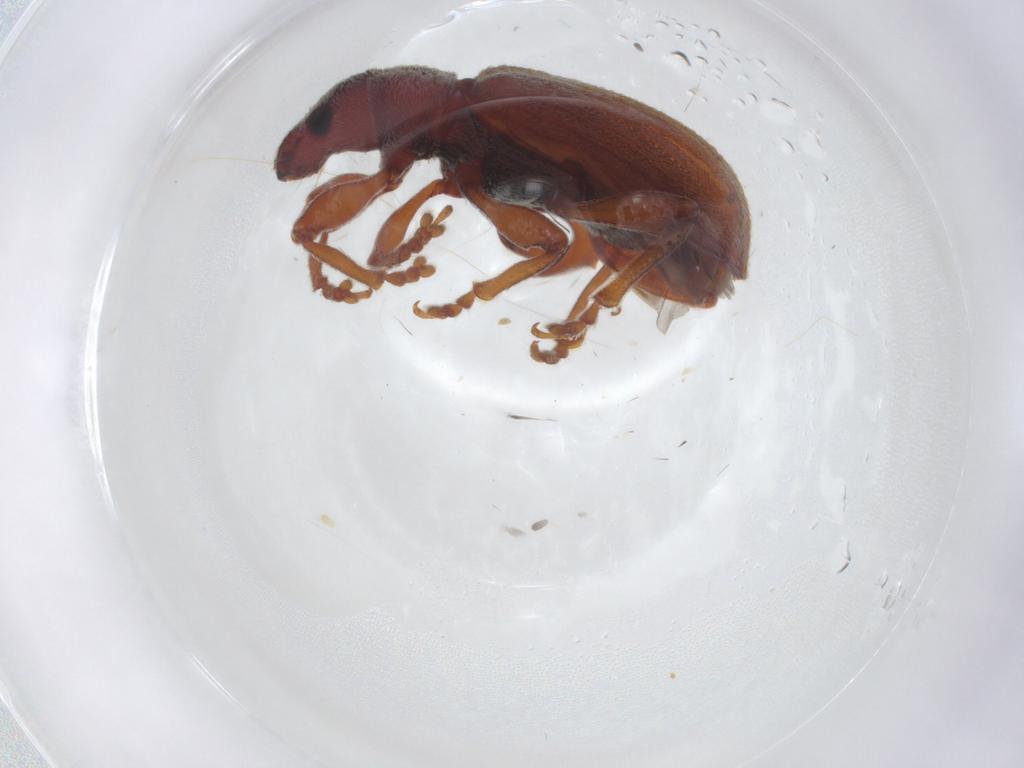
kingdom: Animalia
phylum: Arthropoda
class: Insecta
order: Coleoptera
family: Curculionidae
